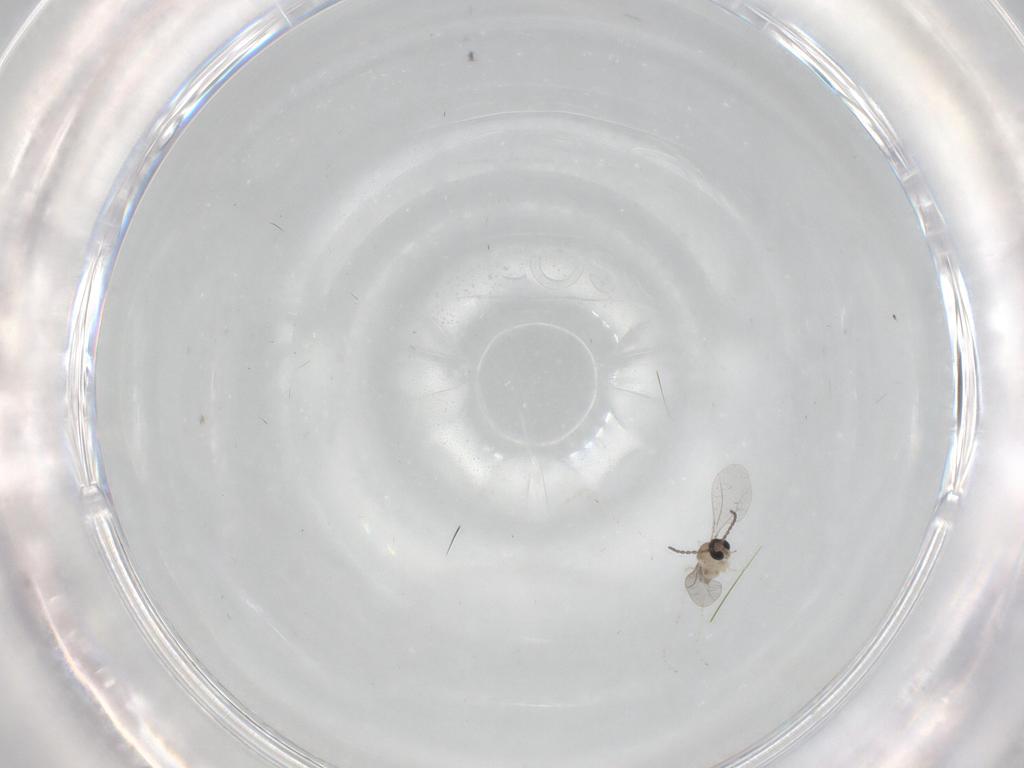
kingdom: Animalia
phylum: Arthropoda
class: Insecta
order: Diptera
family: Cecidomyiidae
